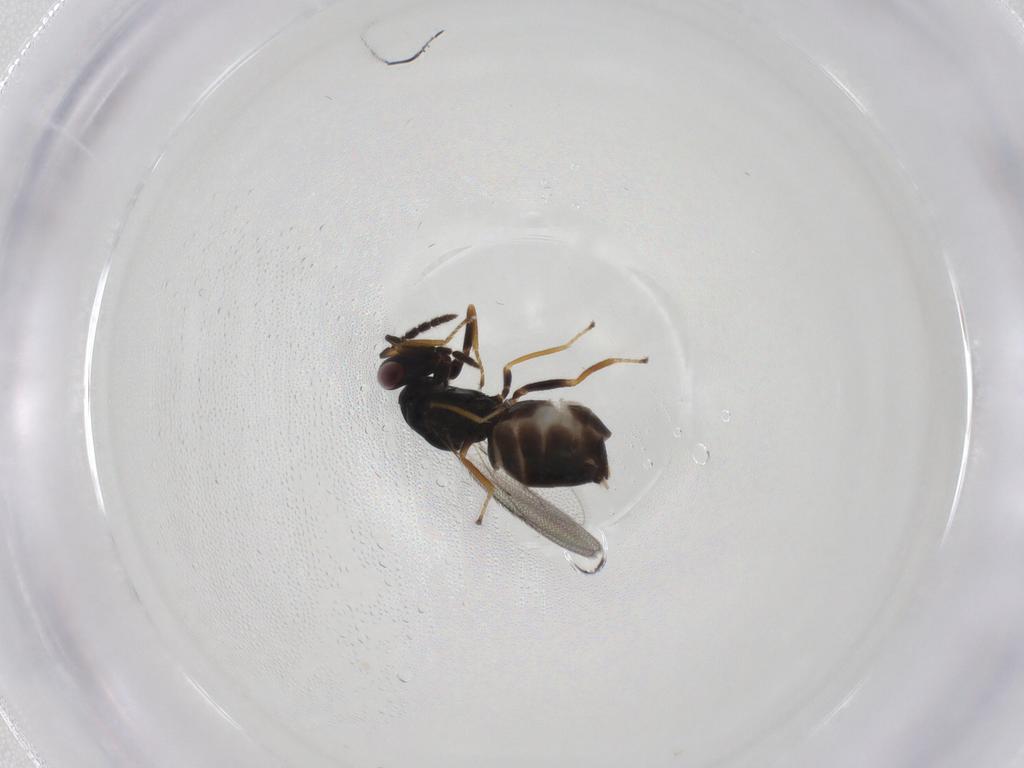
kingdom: Animalia
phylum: Arthropoda
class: Insecta
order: Hymenoptera
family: Eulophidae
